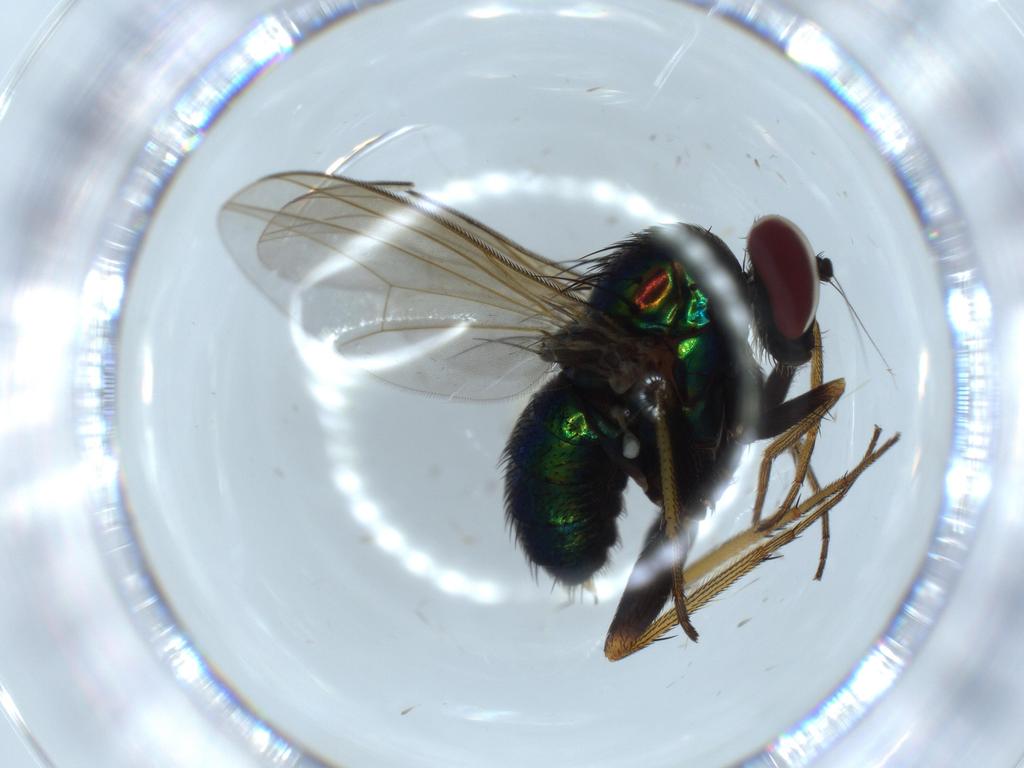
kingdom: Animalia
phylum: Arthropoda
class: Insecta
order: Diptera
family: Dolichopodidae
